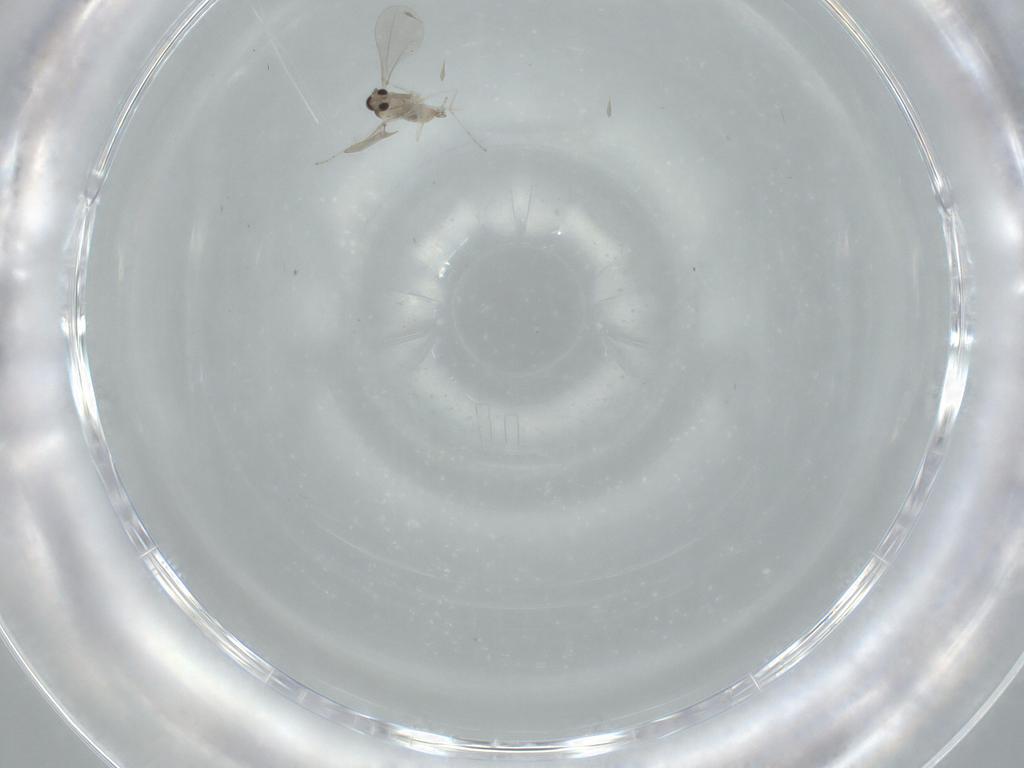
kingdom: Animalia
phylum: Arthropoda
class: Insecta
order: Diptera
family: Cecidomyiidae
